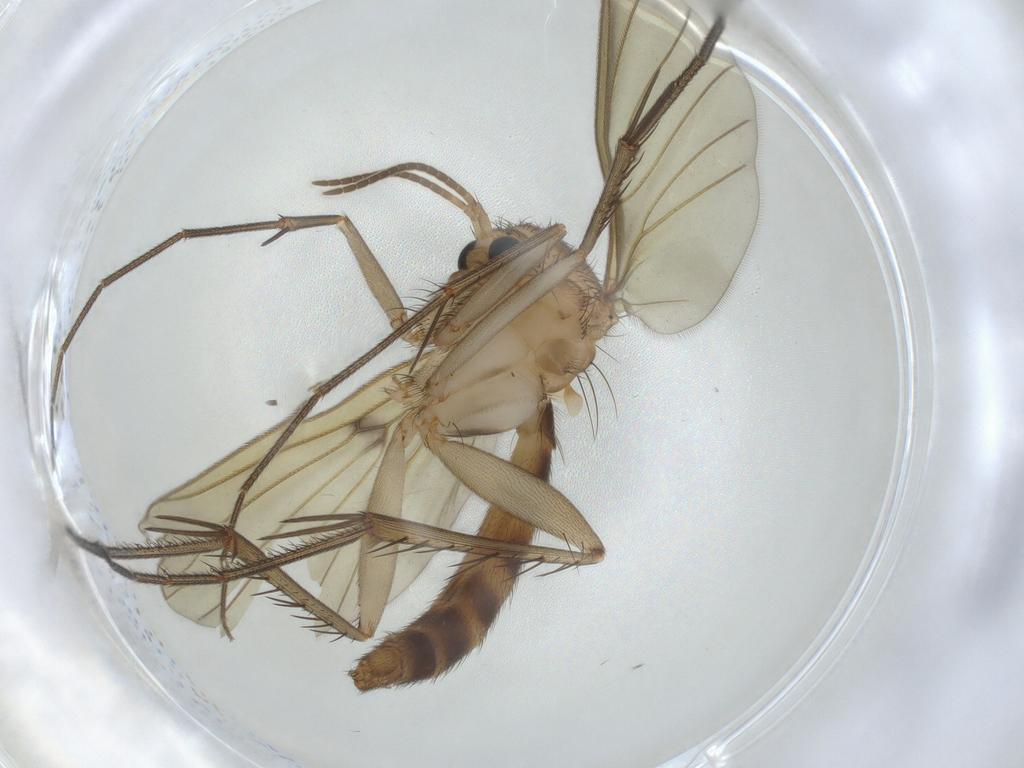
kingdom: Animalia
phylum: Arthropoda
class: Insecta
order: Diptera
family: Mycetophilidae
